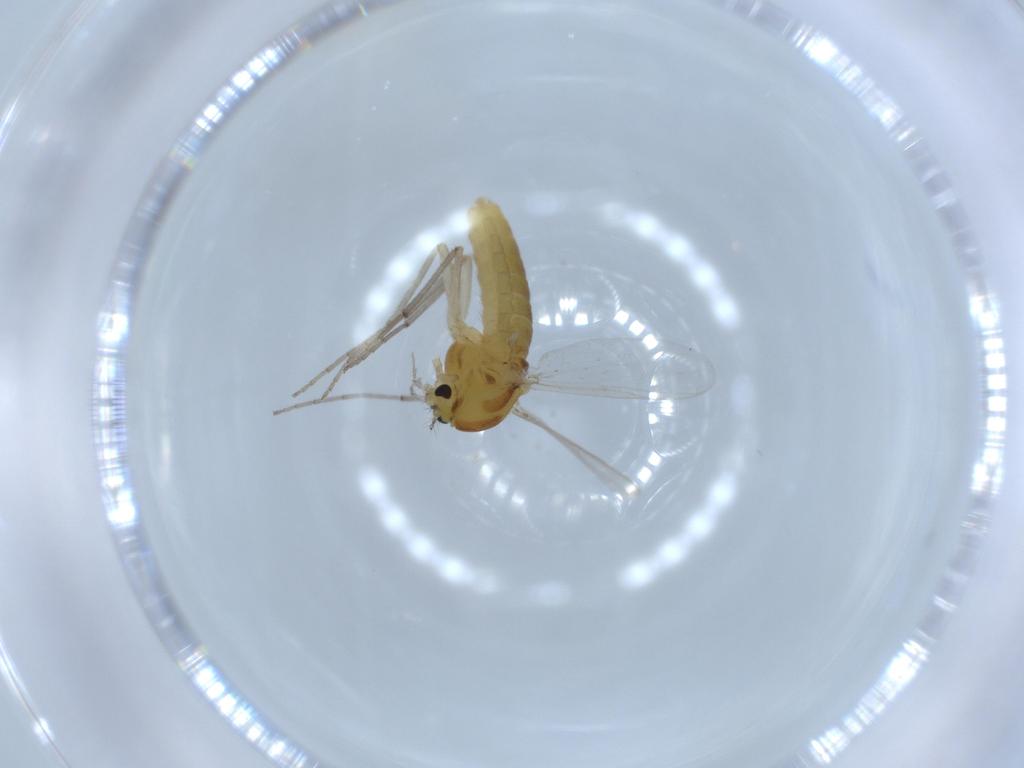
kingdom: Animalia
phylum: Arthropoda
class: Insecta
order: Diptera
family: Chironomidae
